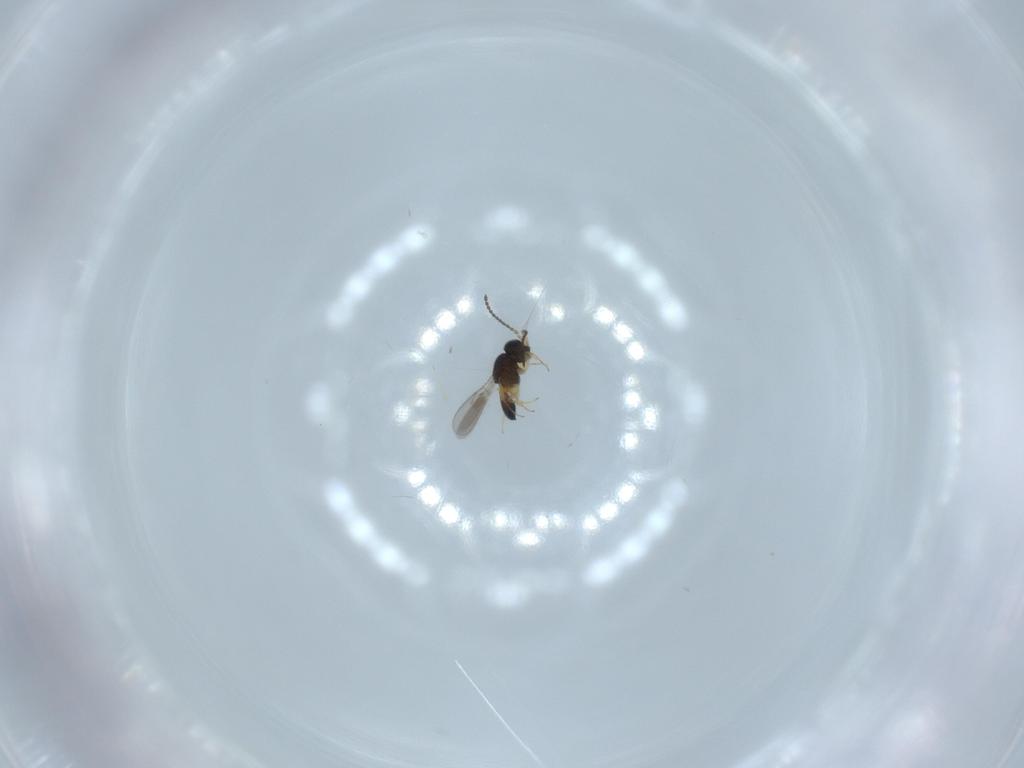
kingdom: Animalia
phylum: Arthropoda
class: Insecta
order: Hymenoptera
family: Scelionidae
